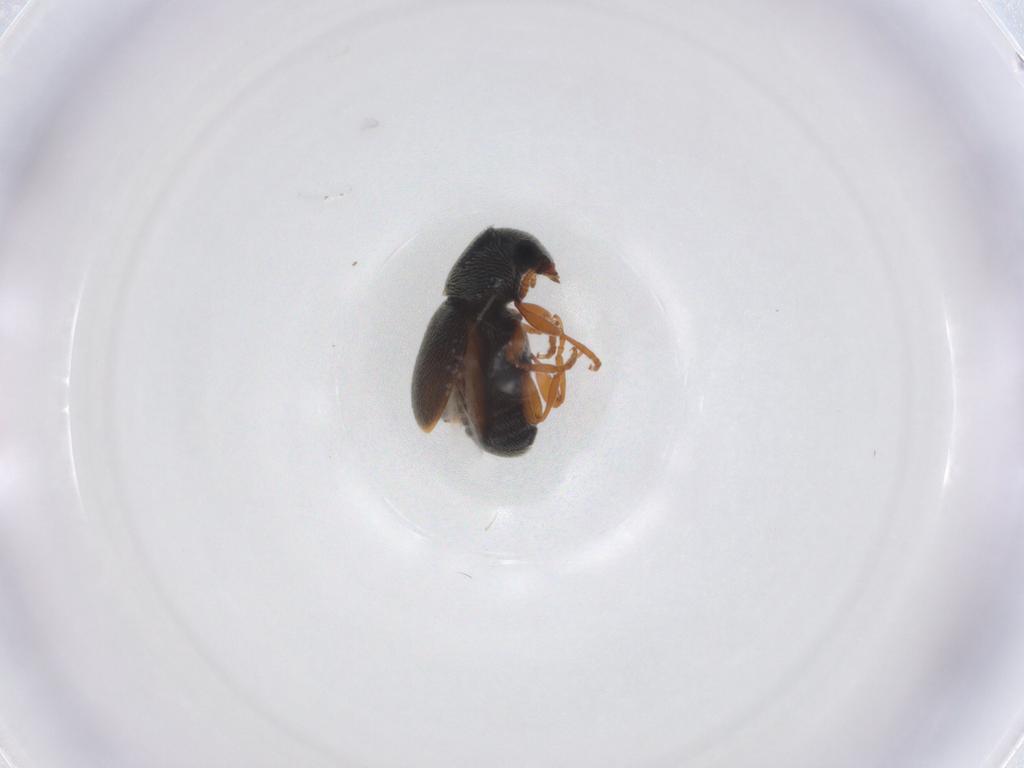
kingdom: Animalia
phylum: Arthropoda
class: Insecta
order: Coleoptera
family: Anthribidae
